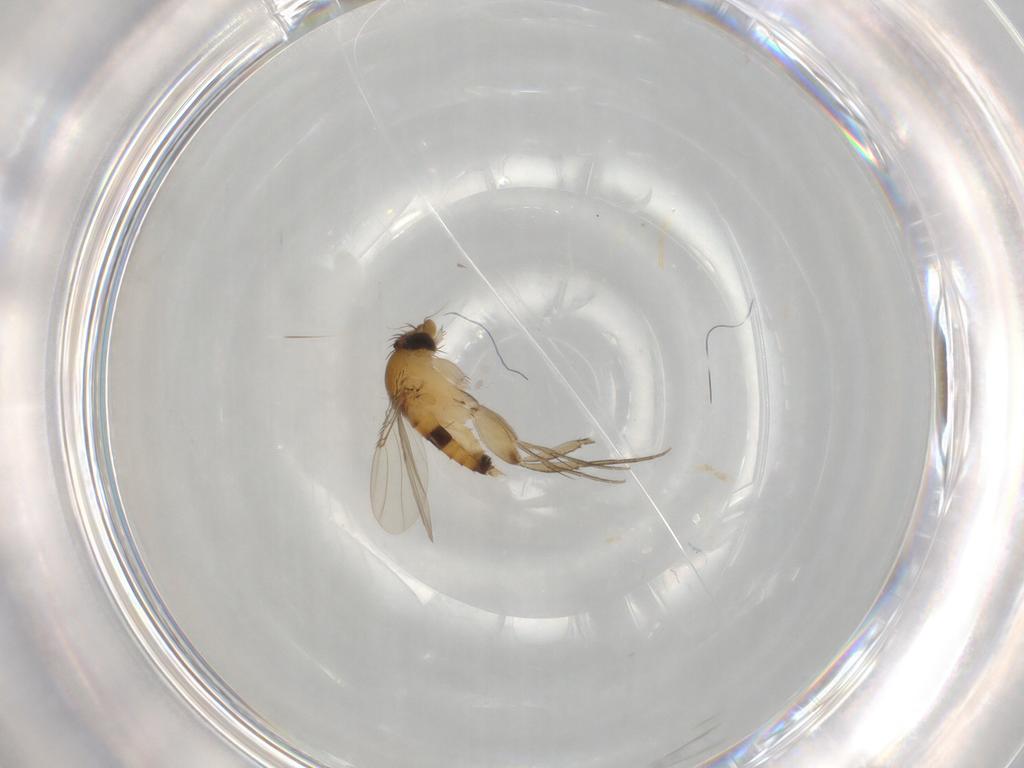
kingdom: Animalia
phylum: Arthropoda
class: Insecta
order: Diptera
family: Phoridae
